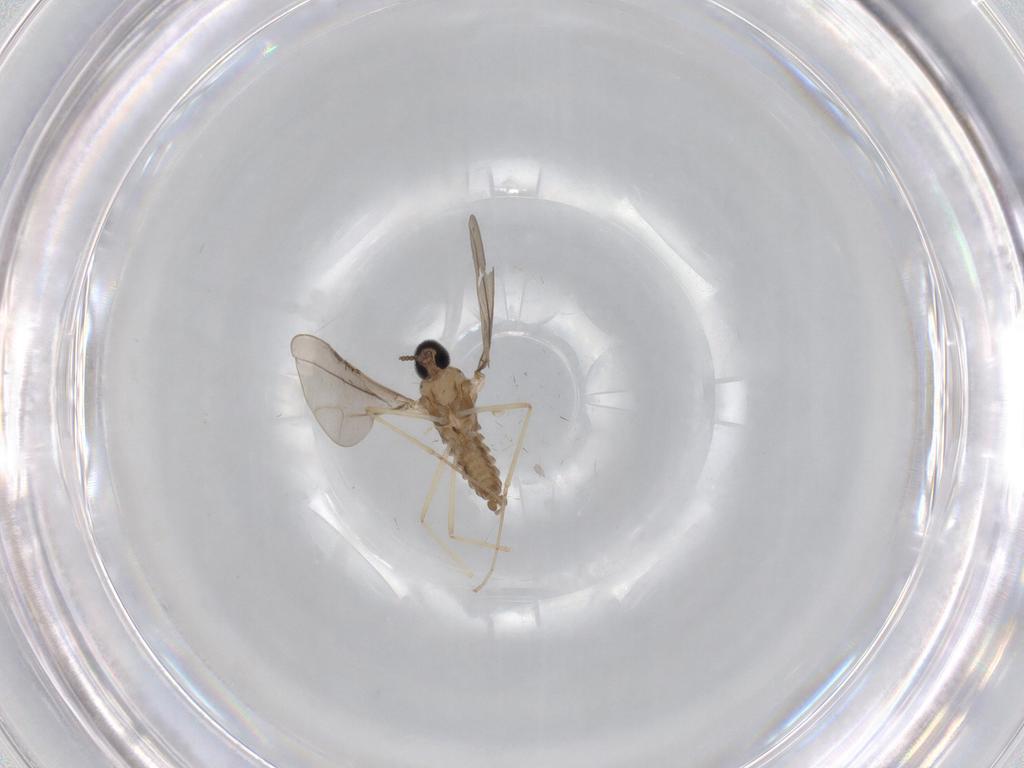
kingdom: Animalia
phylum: Arthropoda
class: Insecta
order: Diptera
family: Cecidomyiidae
